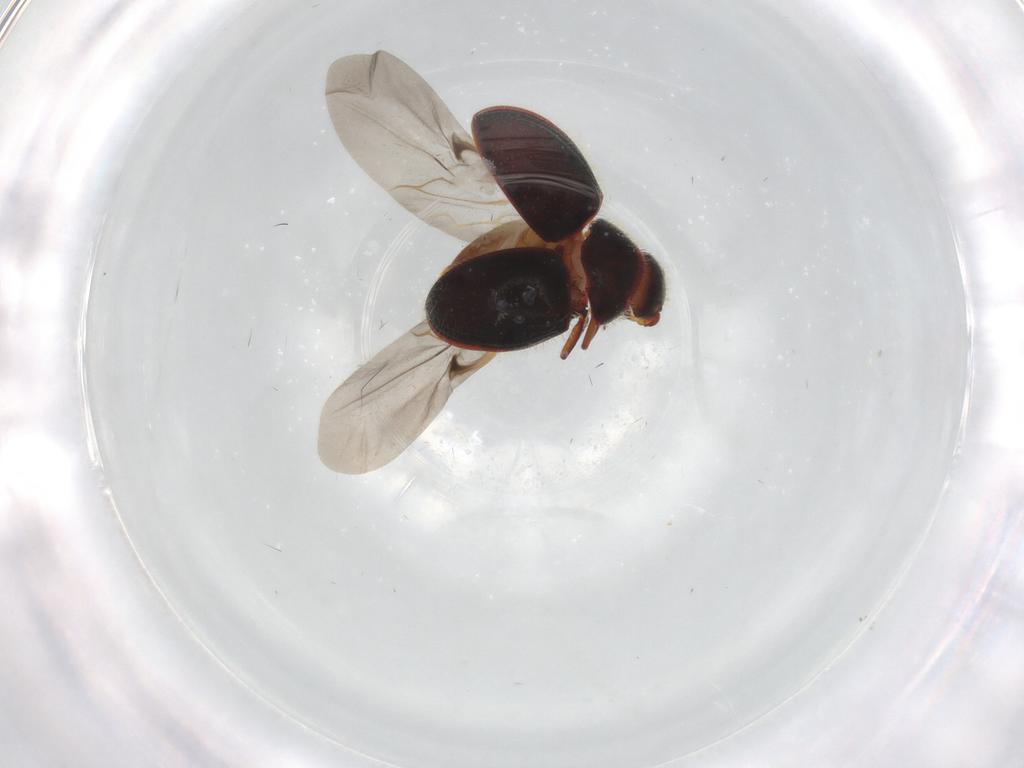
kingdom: Animalia
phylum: Arthropoda
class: Insecta
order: Coleoptera
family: Ptinidae
